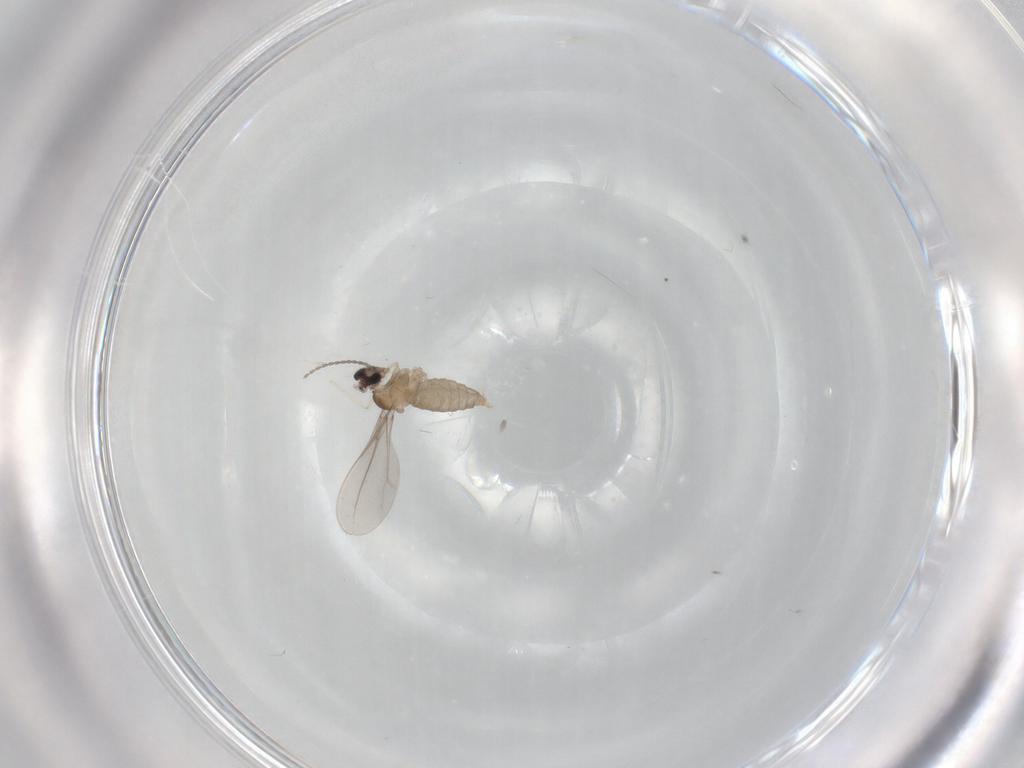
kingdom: Animalia
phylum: Arthropoda
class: Insecta
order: Diptera
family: Cecidomyiidae
